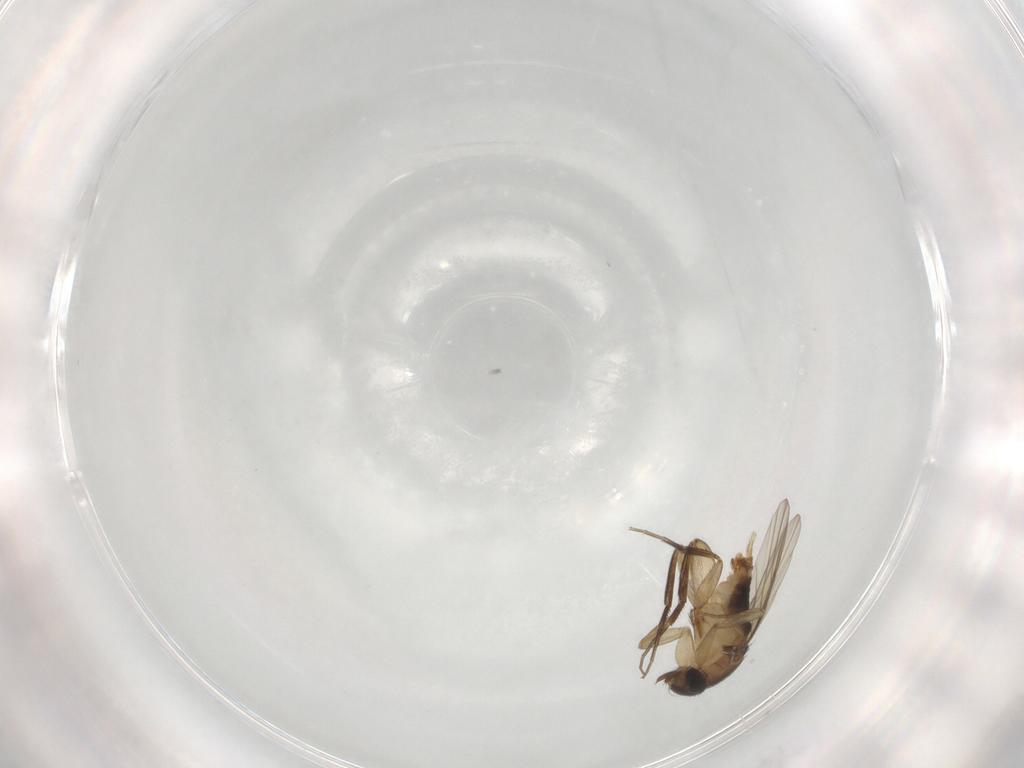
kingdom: Animalia
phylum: Arthropoda
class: Insecta
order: Diptera
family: Phoridae
